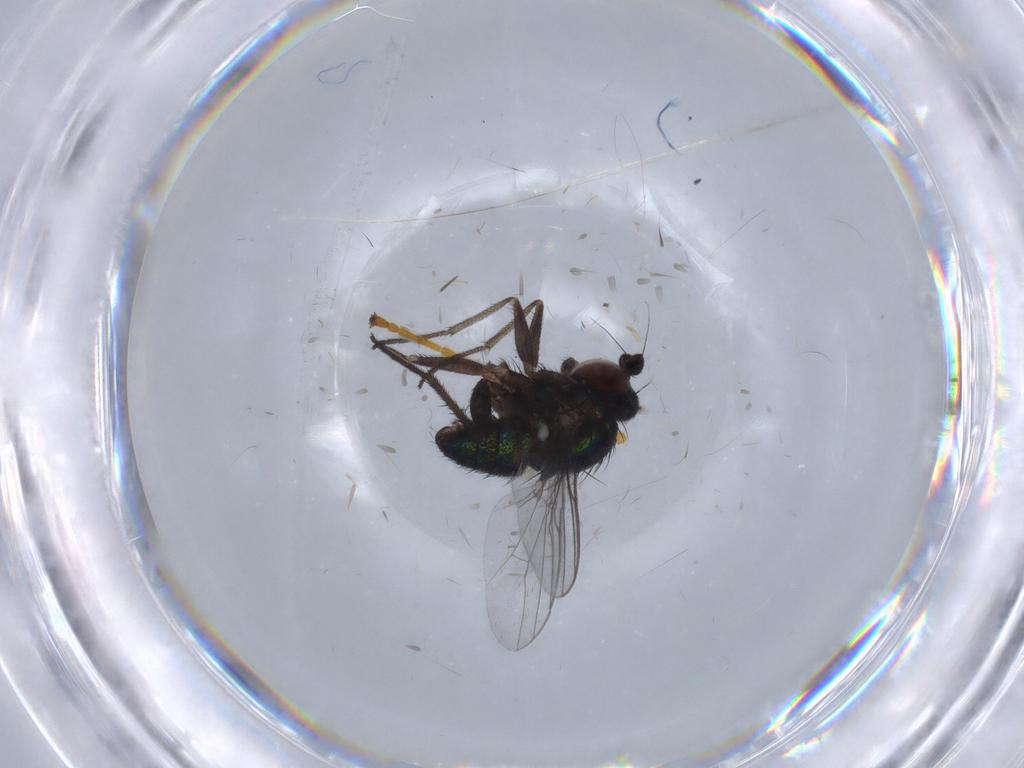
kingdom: Animalia
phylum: Arthropoda
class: Insecta
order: Diptera
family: Dolichopodidae
